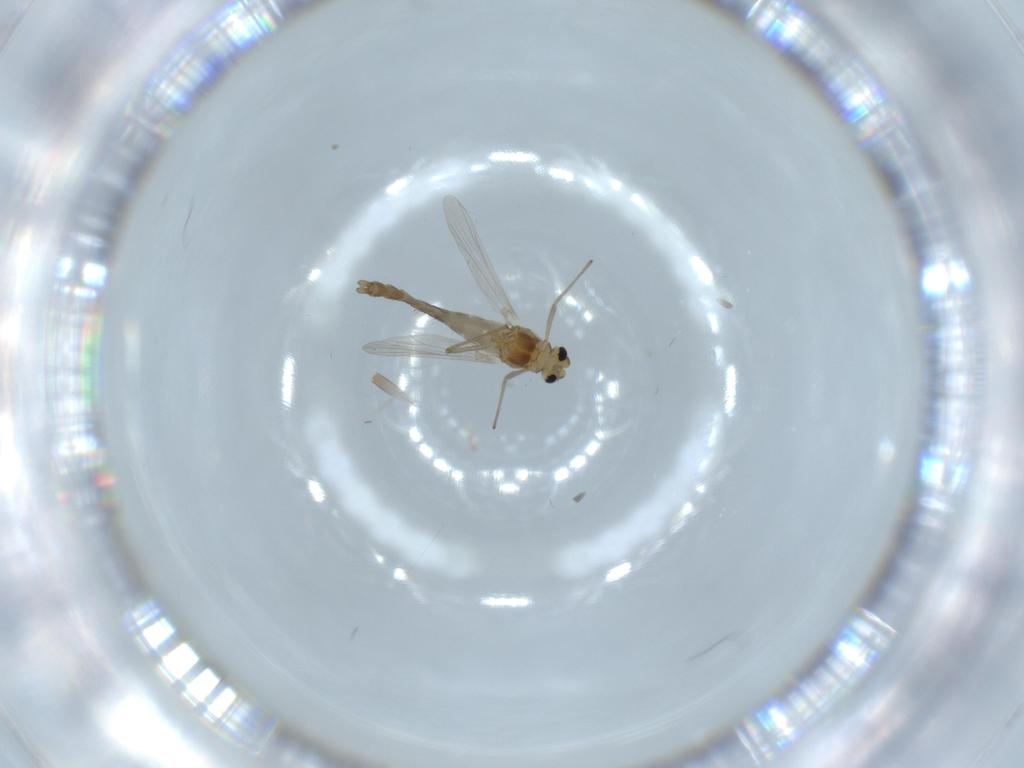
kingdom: Animalia
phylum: Arthropoda
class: Insecta
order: Diptera
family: Chironomidae
